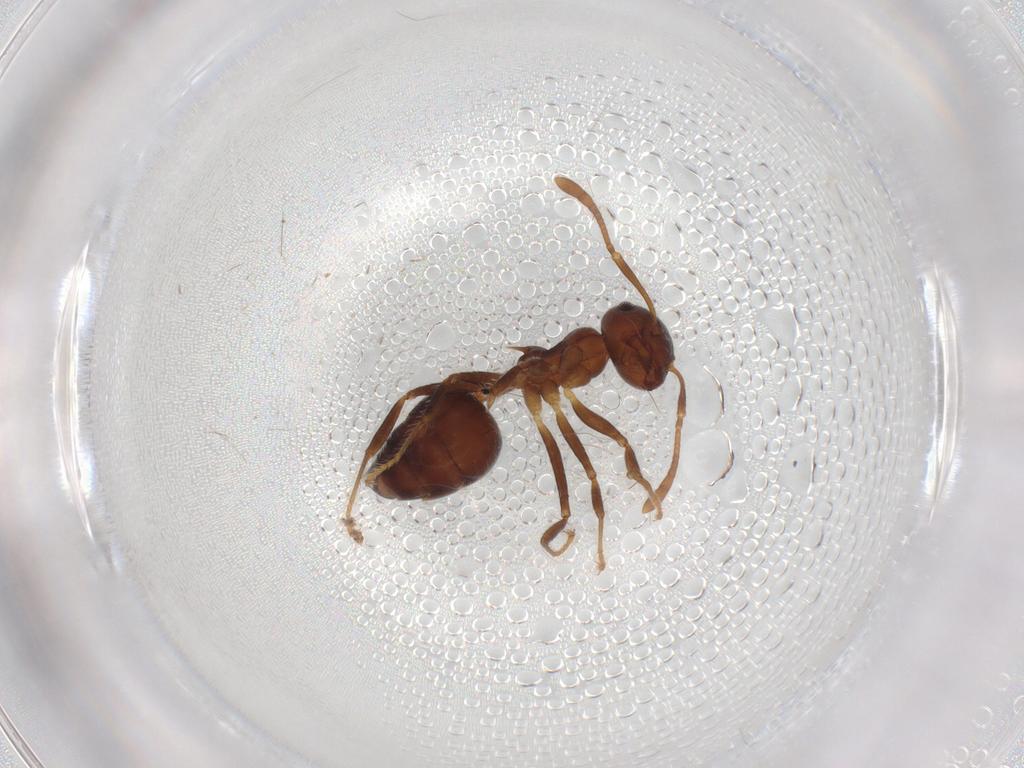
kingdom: Animalia
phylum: Arthropoda
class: Insecta
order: Hymenoptera
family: Formicidae
